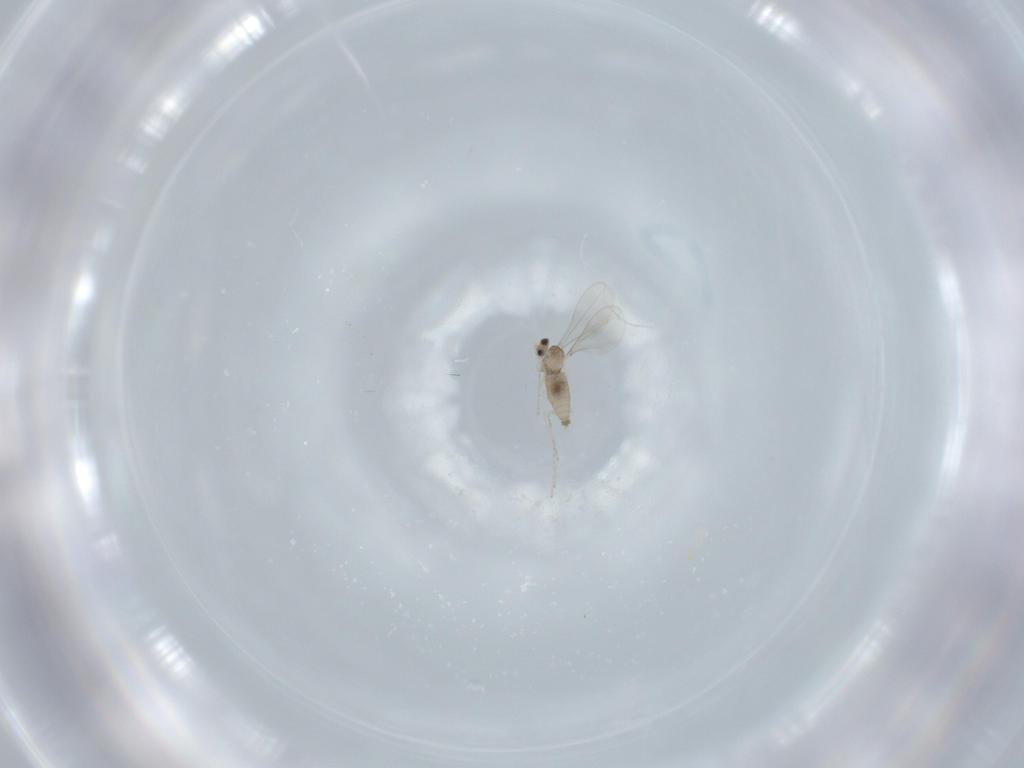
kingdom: Animalia
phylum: Arthropoda
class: Insecta
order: Diptera
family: Cecidomyiidae
